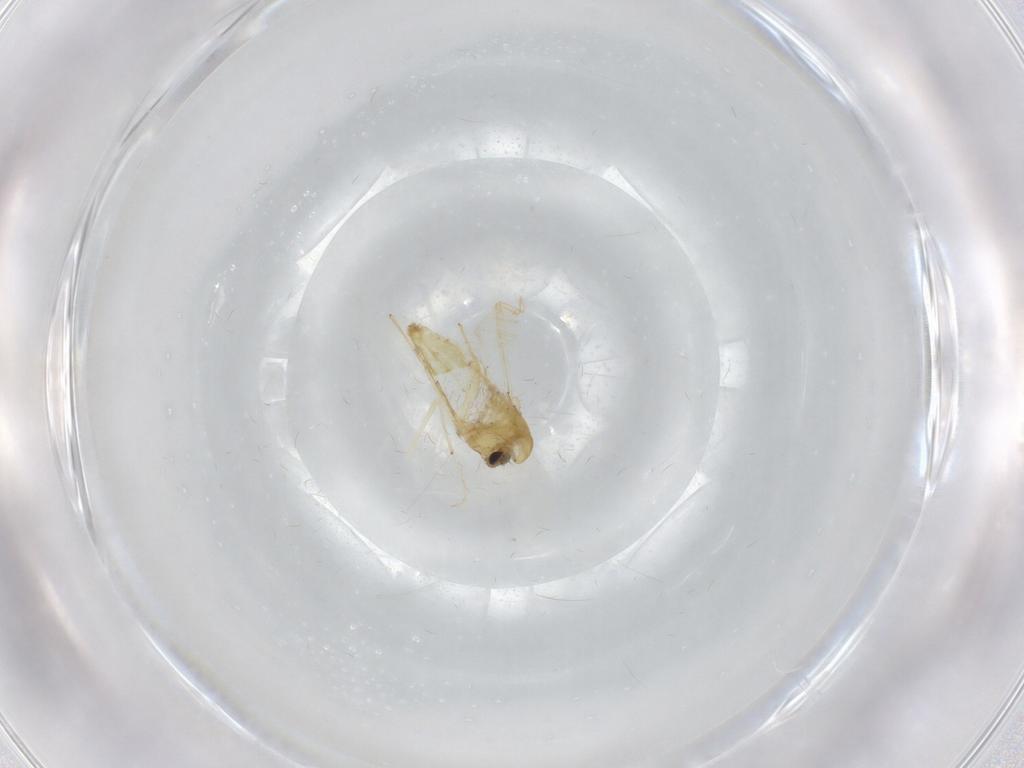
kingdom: Animalia
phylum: Arthropoda
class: Insecta
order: Diptera
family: Chironomidae
